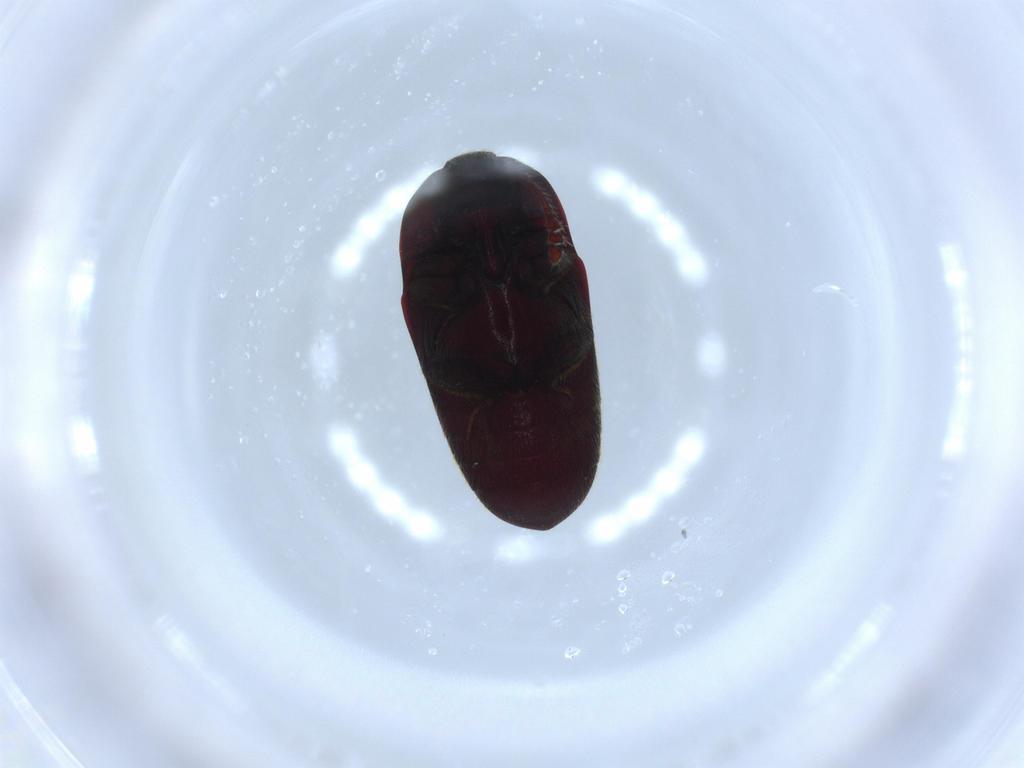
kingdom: Animalia
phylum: Arthropoda
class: Insecta
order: Coleoptera
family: Throscidae
